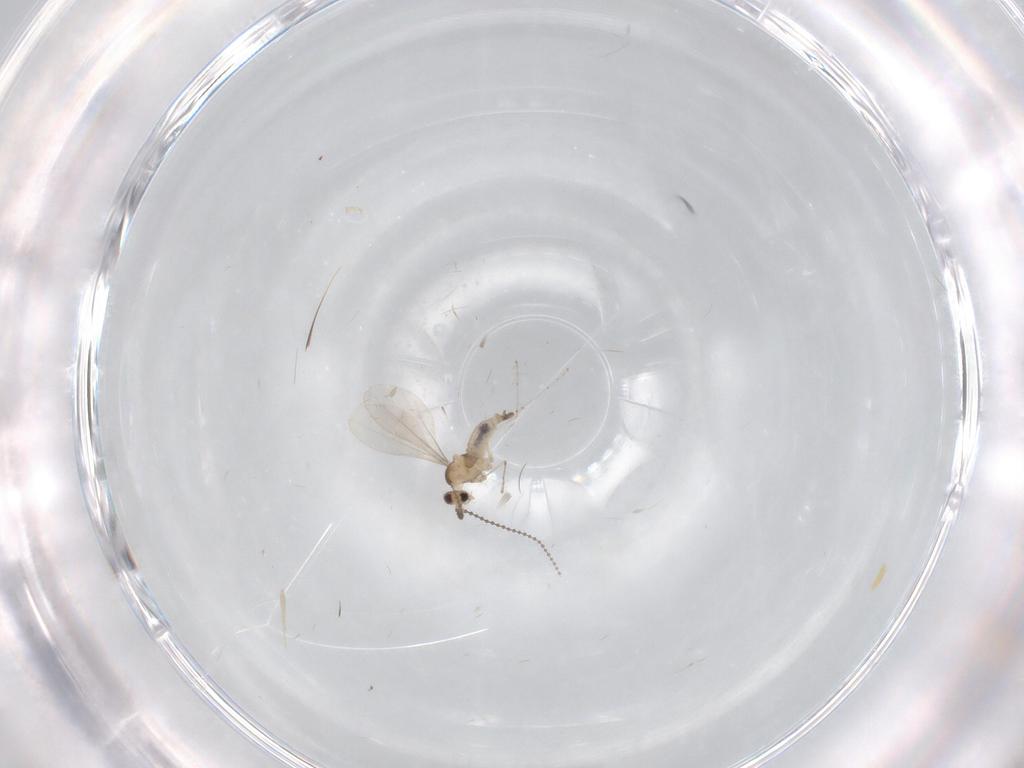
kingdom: Animalia
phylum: Arthropoda
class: Insecta
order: Diptera
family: Cecidomyiidae
